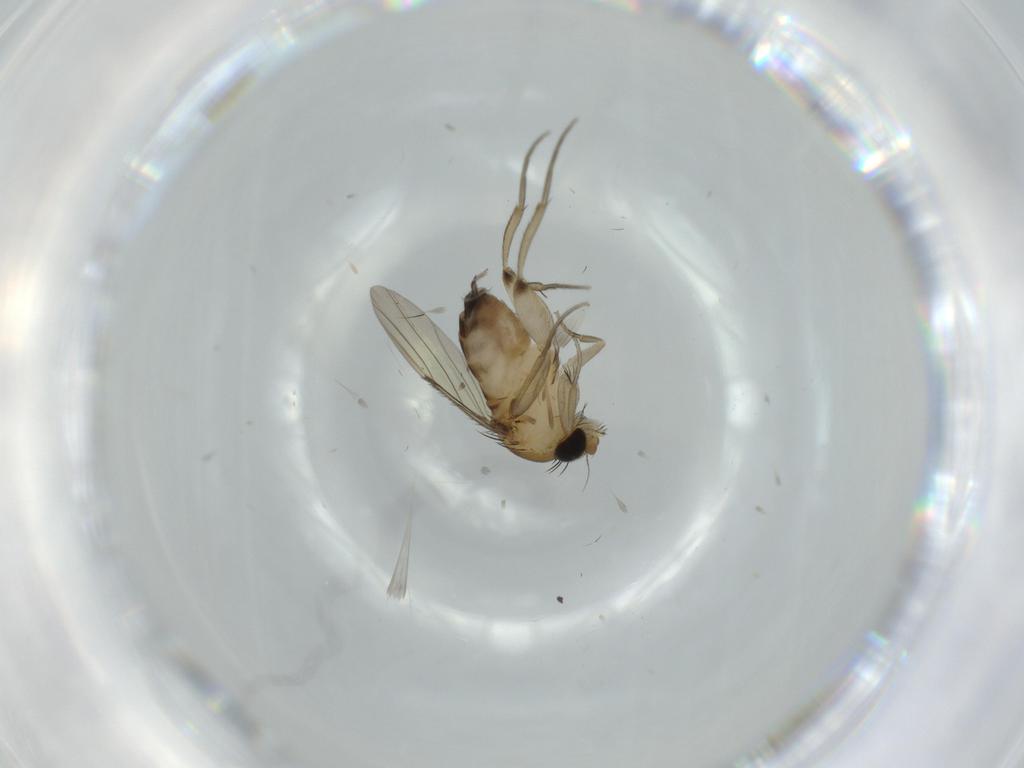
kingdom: Animalia
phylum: Arthropoda
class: Insecta
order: Diptera
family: Phoridae
